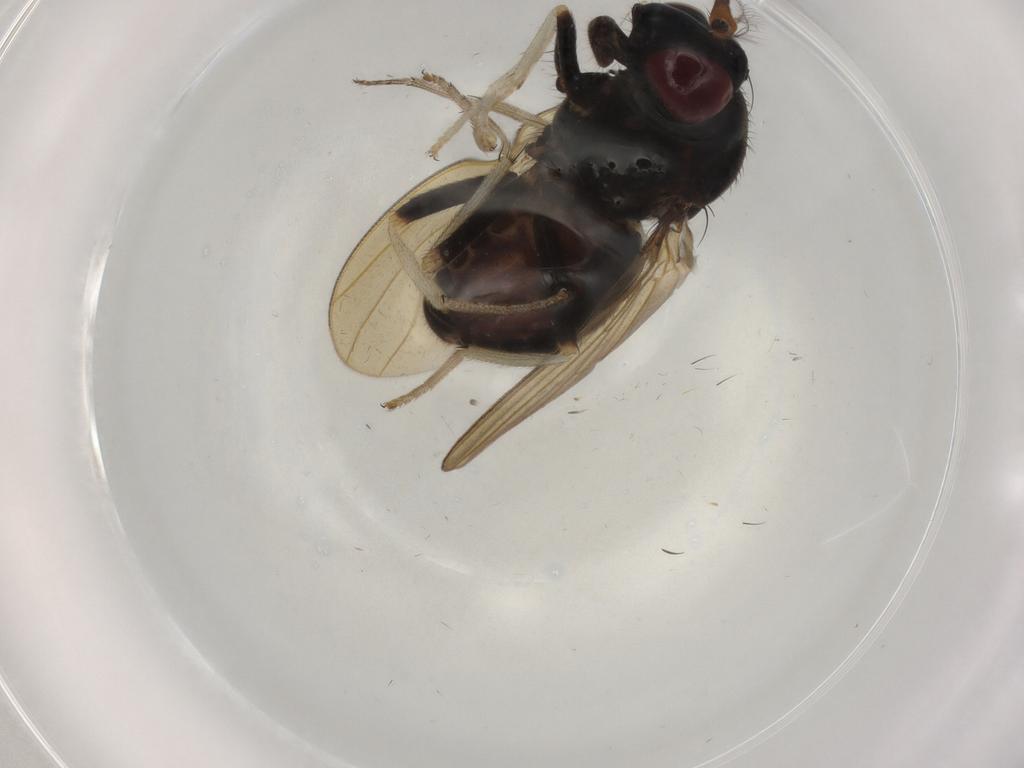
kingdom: Animalia
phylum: Arthropoda
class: Insecta
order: Diptera
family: Lauxaniidae
